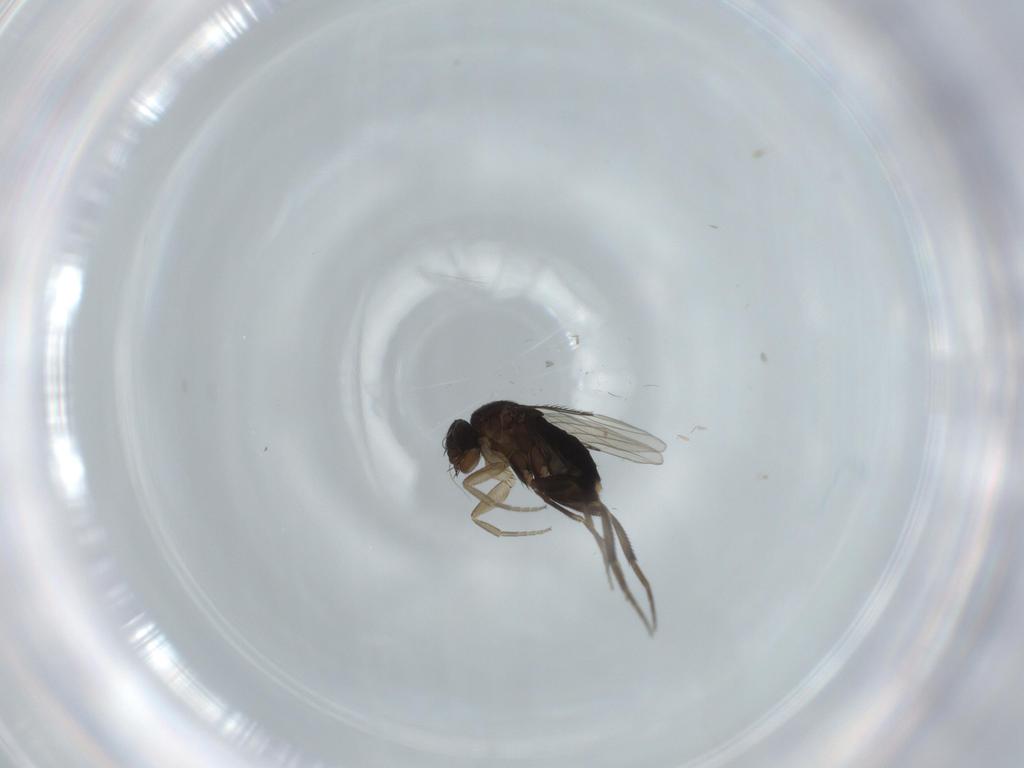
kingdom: Animalia
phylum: Arthropoda
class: Insecta
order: Diptera
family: Phoridae
